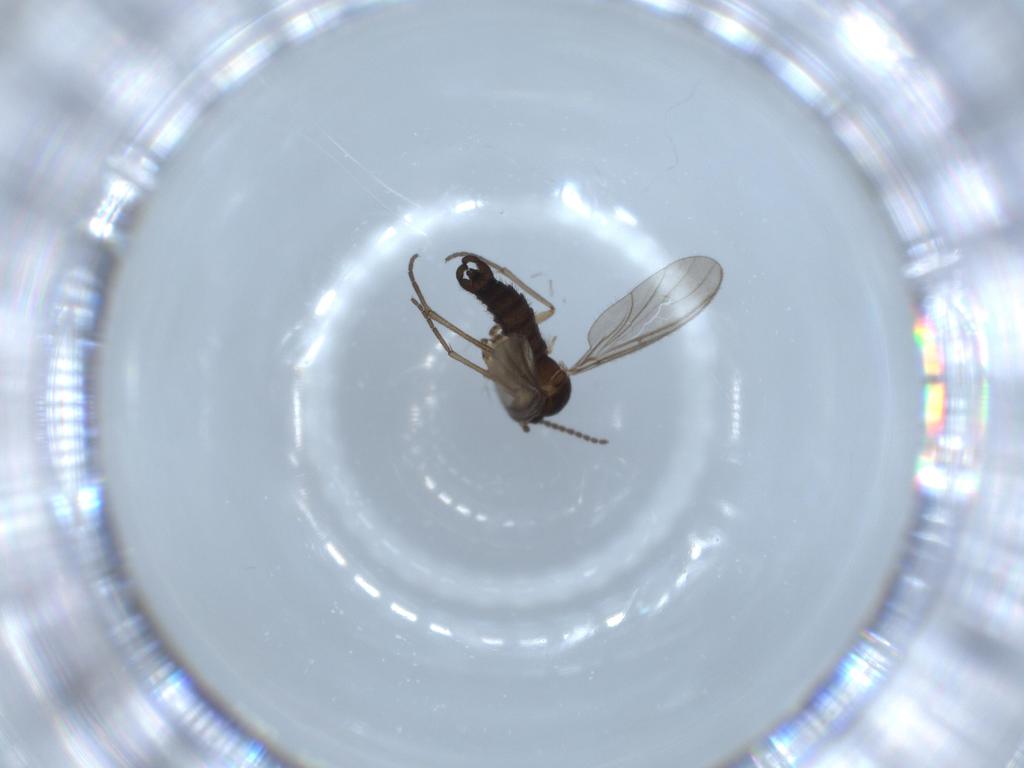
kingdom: Animalia
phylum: Arthropoda
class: Insecta
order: Diptera
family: Sciaridae
